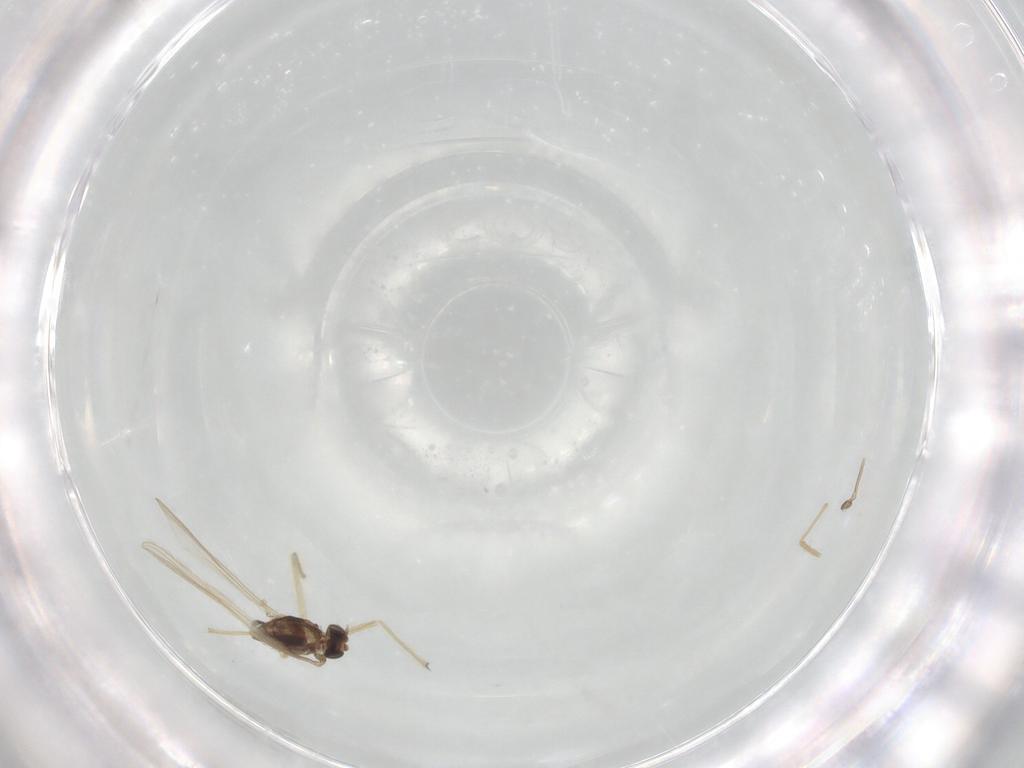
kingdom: Animalia
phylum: Arthropoda
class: Insecta
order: Diptera
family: Chironomidae
